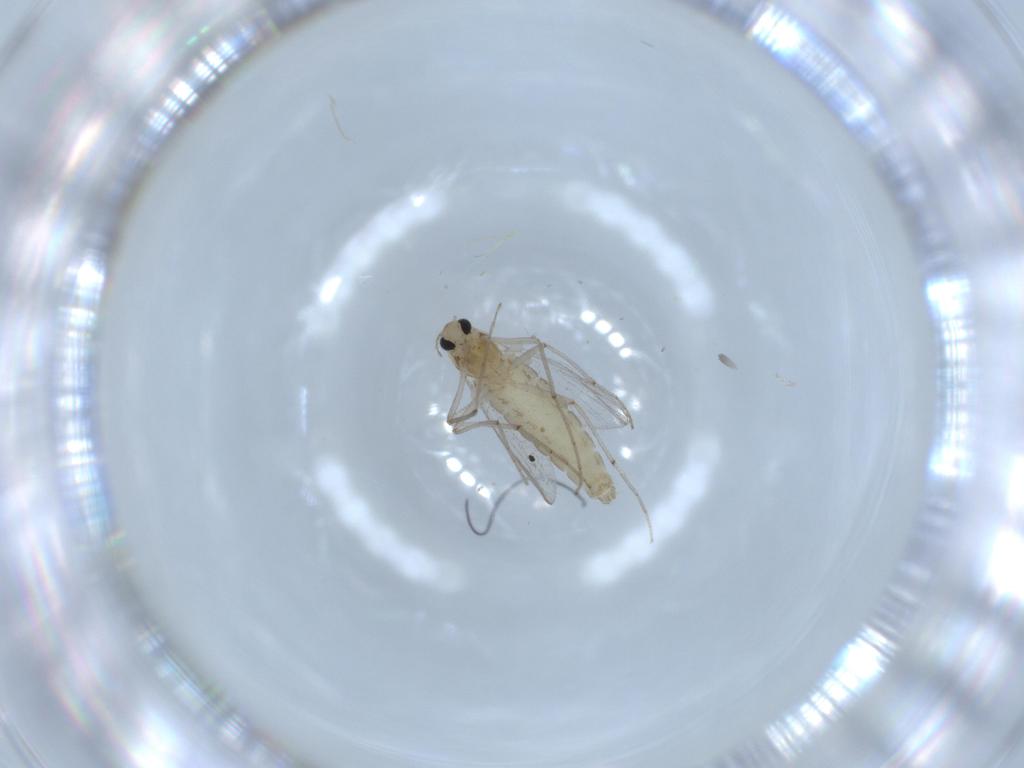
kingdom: Animalia
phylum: Arthropoda
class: Insecta
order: Diptera
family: Chironomidae
